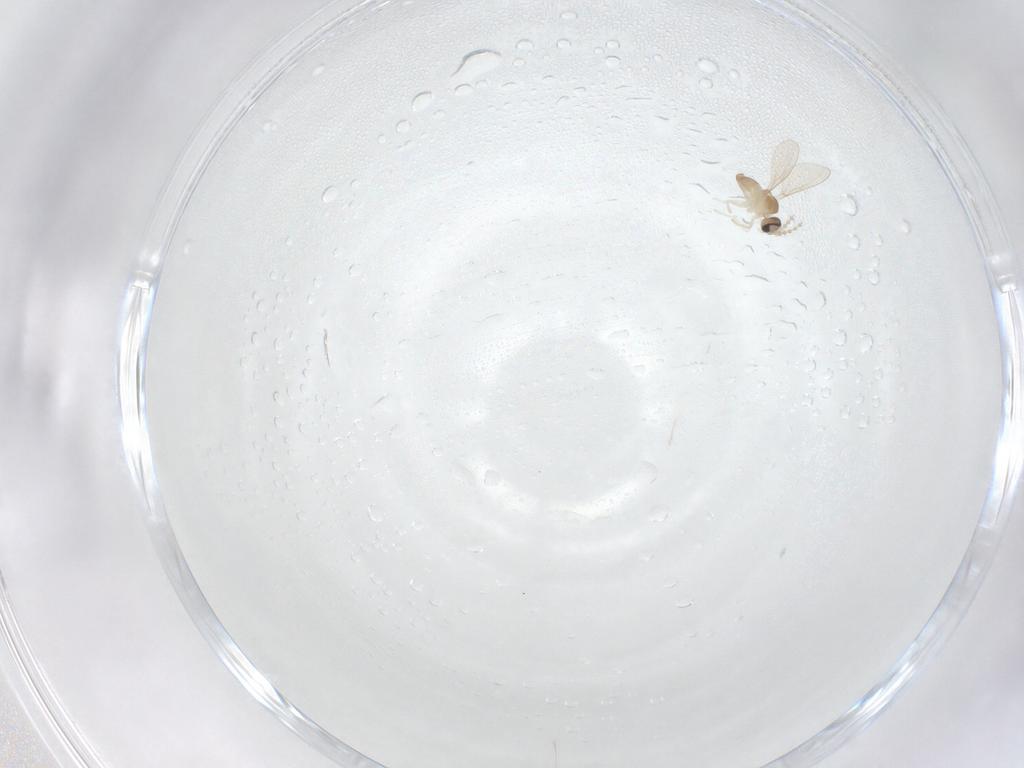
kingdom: Animalia
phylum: Arthropoda
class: Insecta
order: Diptera
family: Cecidomyiidae
